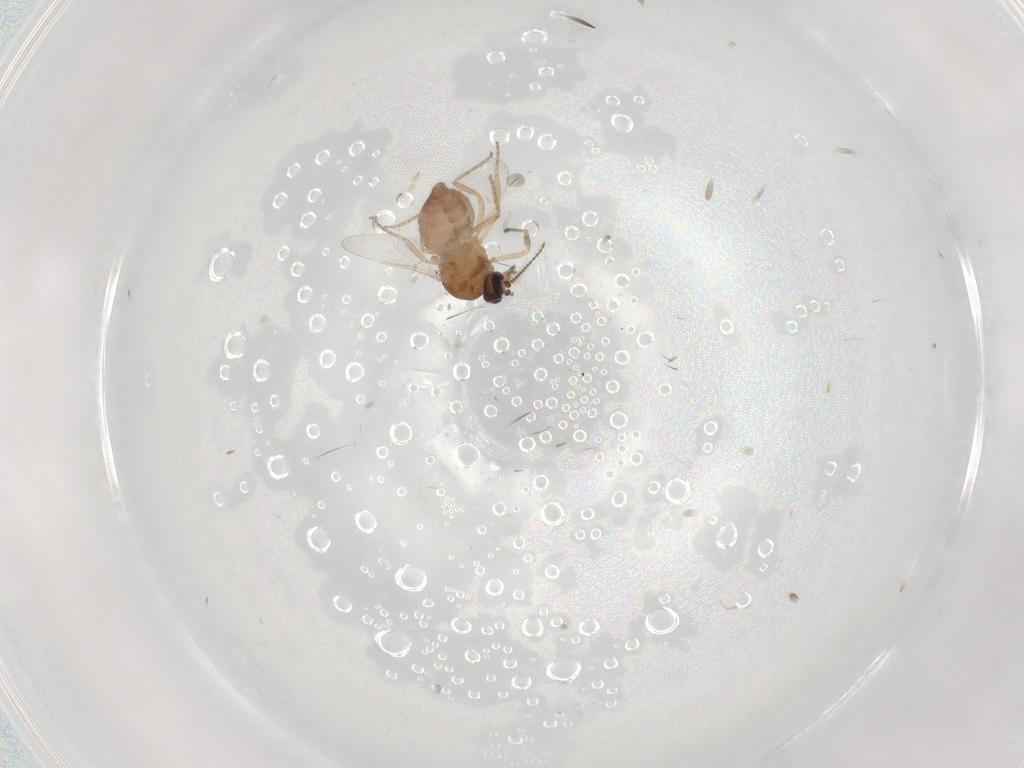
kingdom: Animalia
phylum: Arthropoda
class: Insecta
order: Diptera
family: Ceratopogonidae
